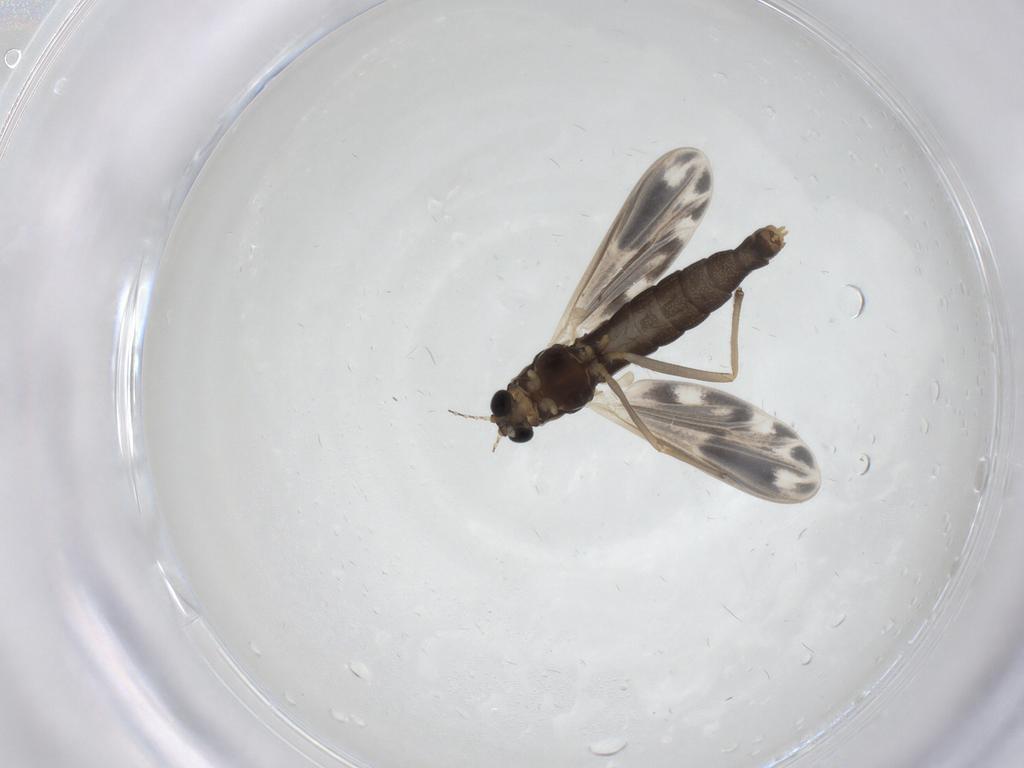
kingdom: Animalia
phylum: Arthropoda
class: Insecta
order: Diptera
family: Chironomidae
